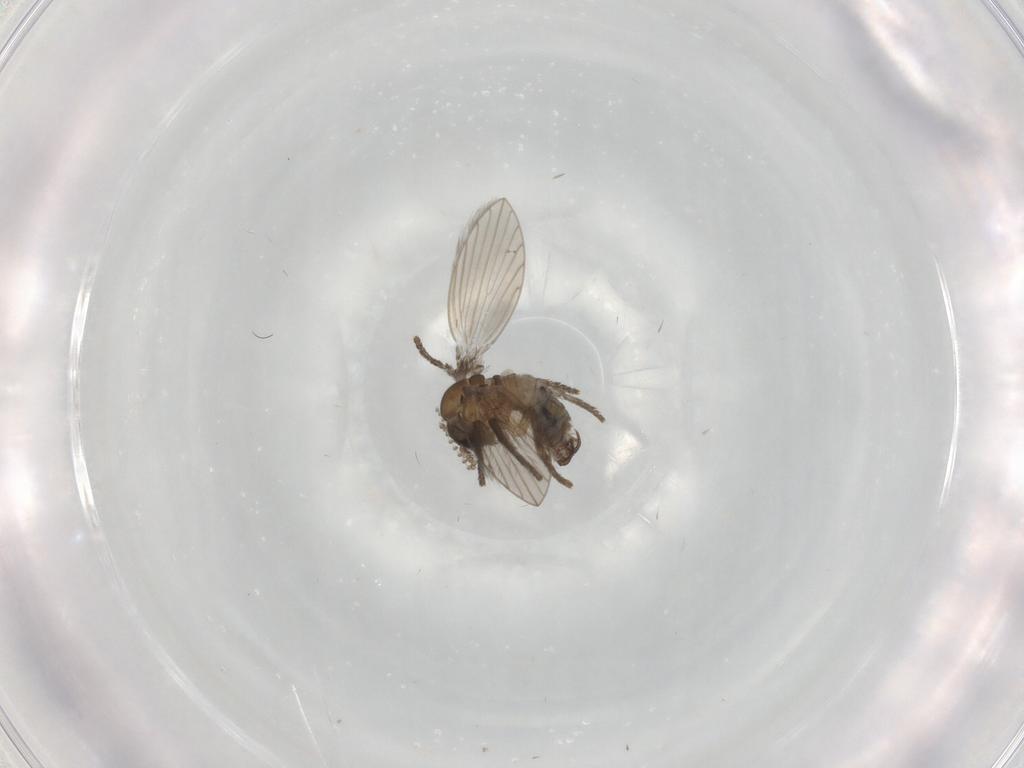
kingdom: Animalia
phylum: Arthropoda
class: Insecta
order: Diptera
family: Psychodidae
